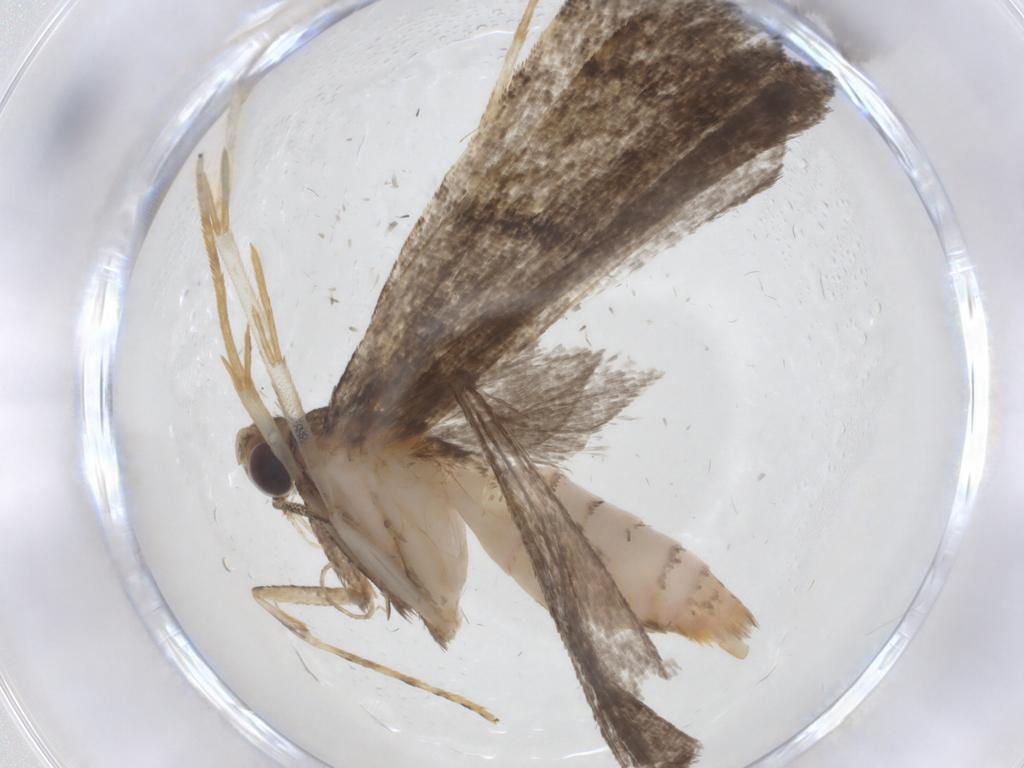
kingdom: Animalia
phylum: Arthropoda
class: Insecta
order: Lepidoptera
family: Cosmopterigidae
